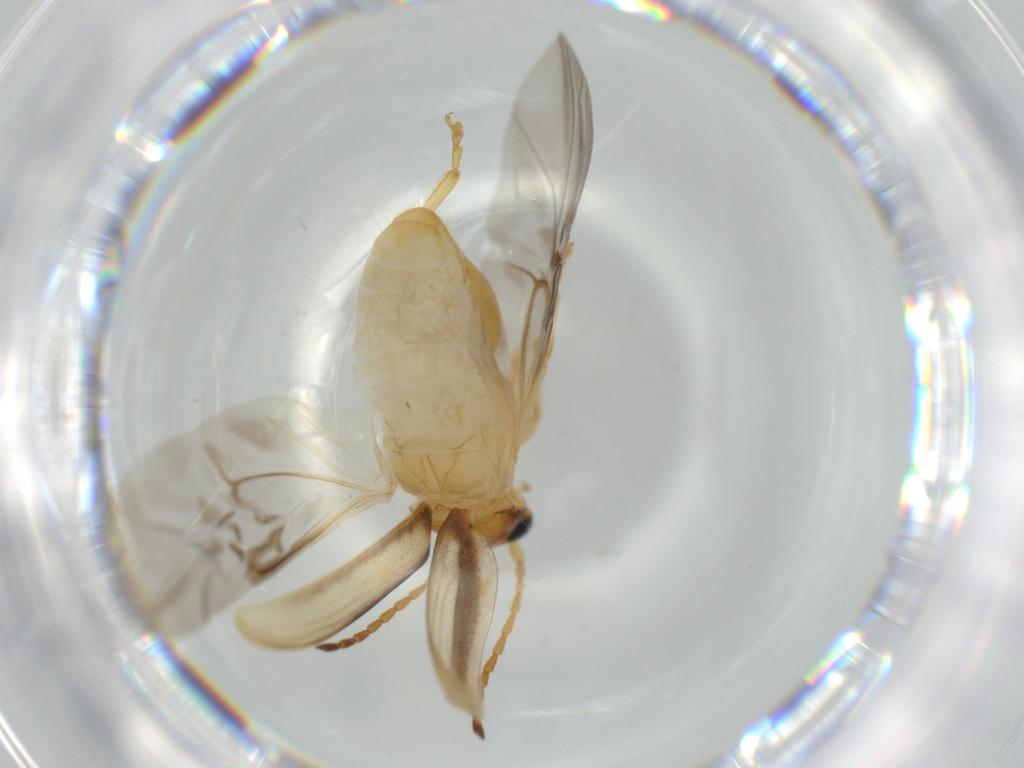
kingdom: Animalia
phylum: Arthropoda
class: Insecta
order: Coleoptera
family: Chrysomelidae
